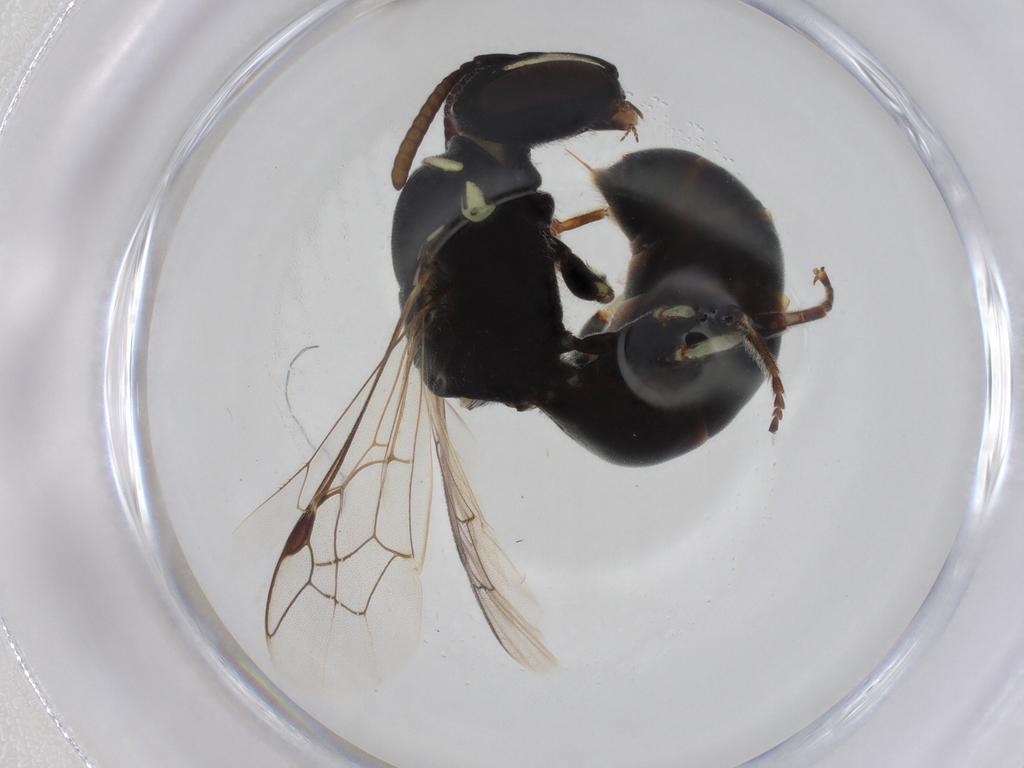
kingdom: Animalia
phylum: Arthropoda
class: Insecta
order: Hymenoptera
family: Colletidae
